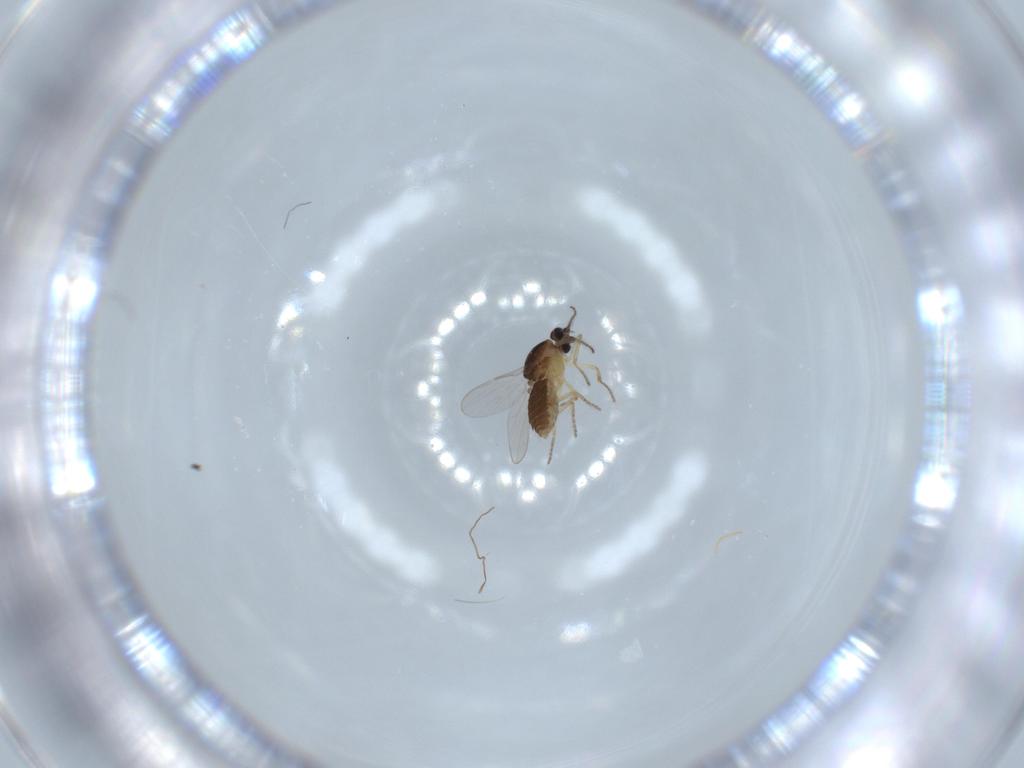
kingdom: Animalia
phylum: Arthropoda
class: Insecta
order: Diptera
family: Ceratopogonidae
